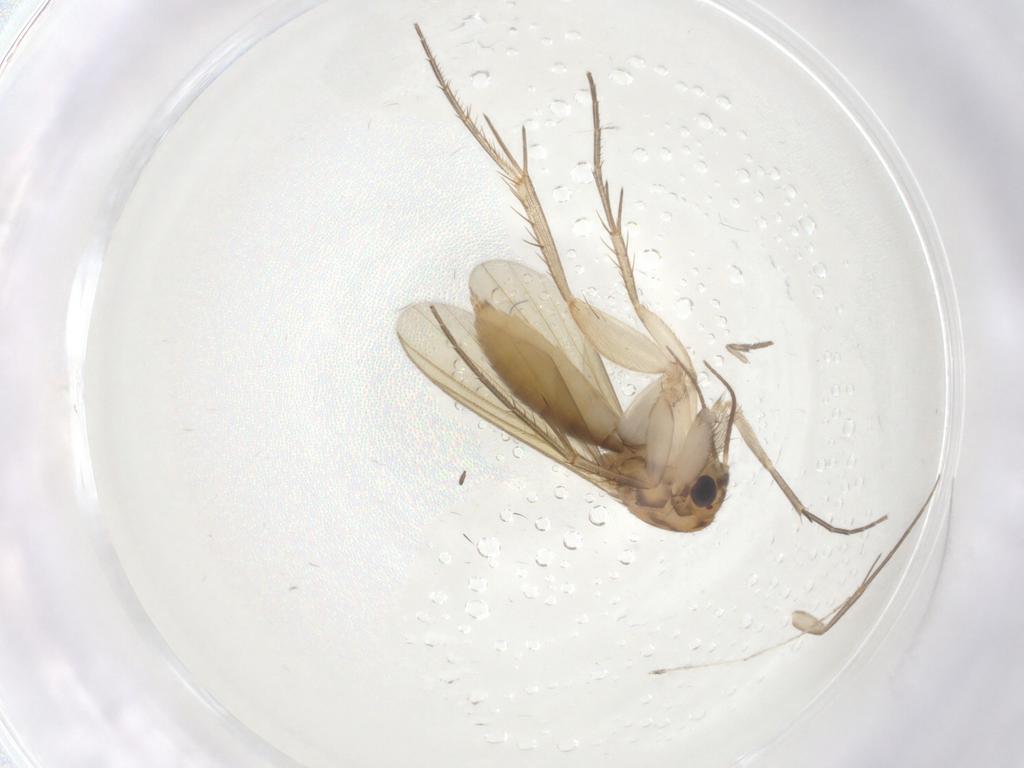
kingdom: Animalia
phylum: Arthropoda
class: Insecta
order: Diptera
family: Mycetophilidae
